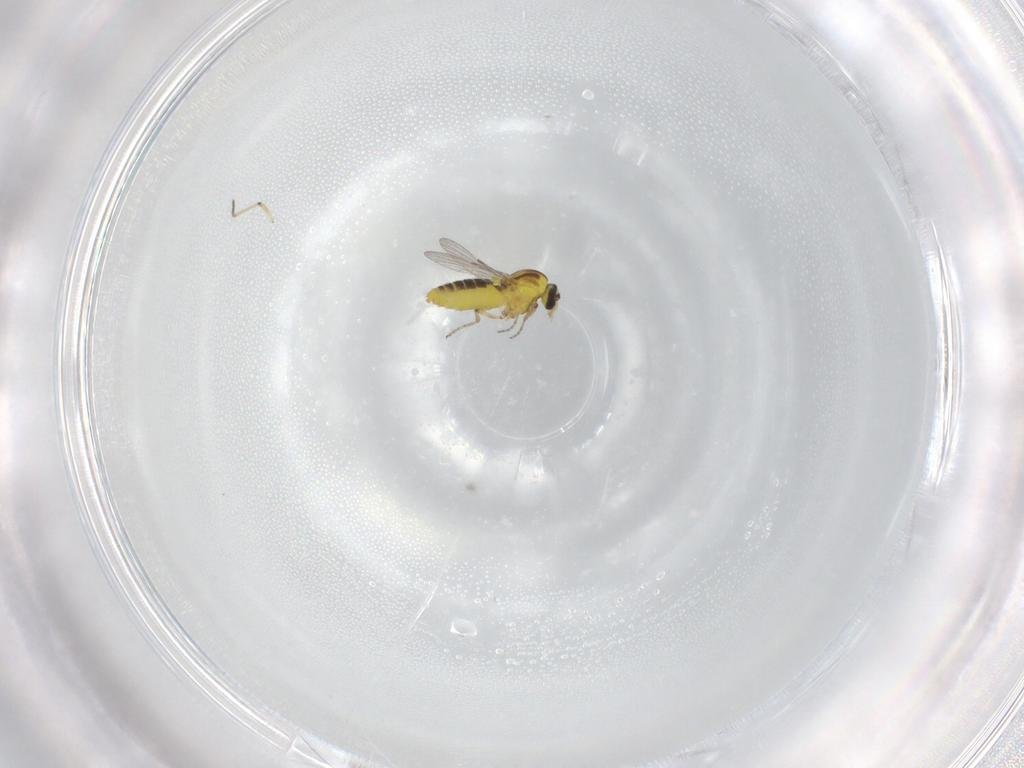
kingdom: Animalia
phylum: Arthropoda
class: Insecta
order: Diptera
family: Ceratopogonidae
